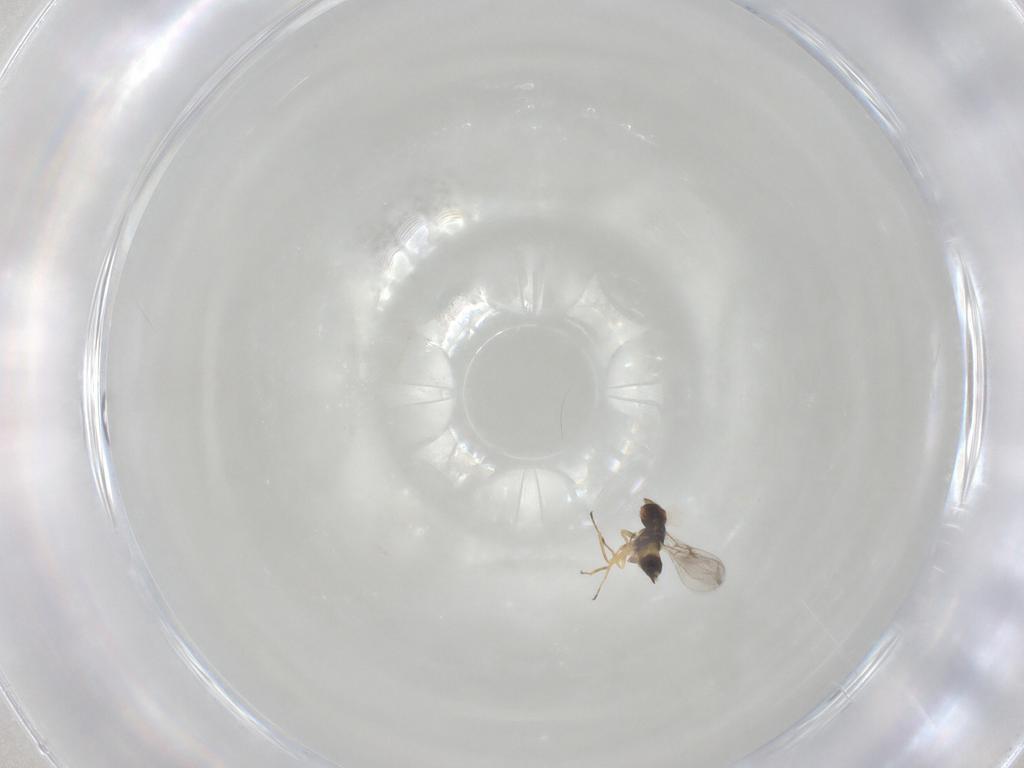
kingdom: Animalia
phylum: Arthropoda
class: Insecta
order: Hymenoptera
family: Eulophidae
